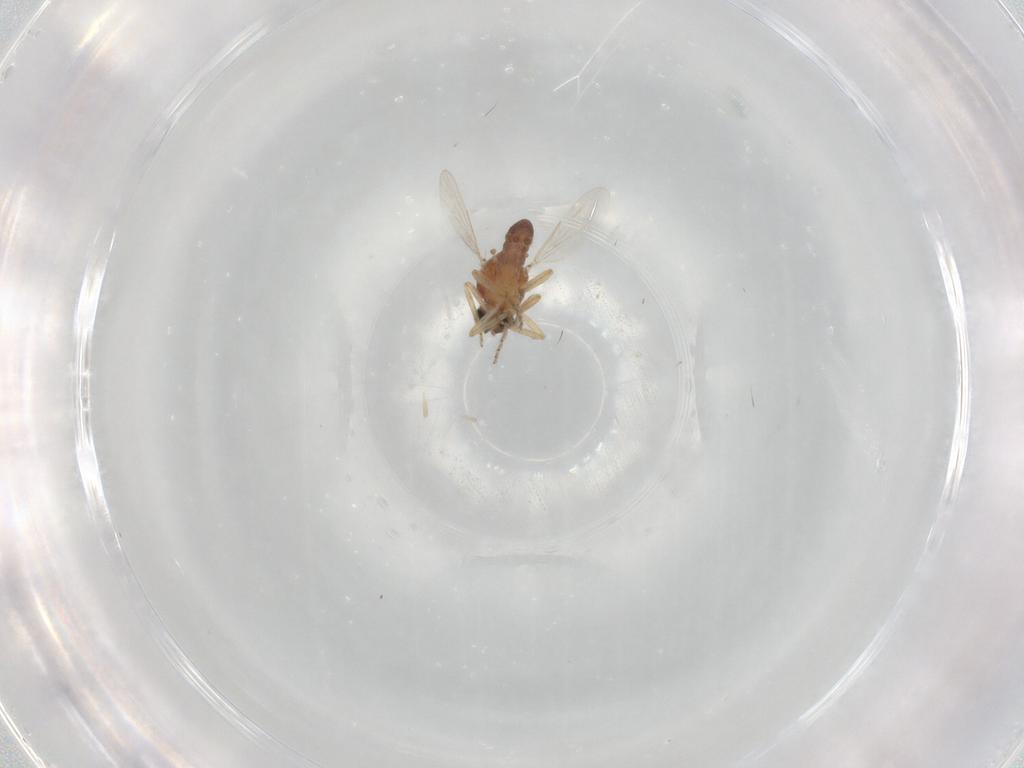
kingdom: Animalia
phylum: Arthropoda
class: Insecta
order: Diptera
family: Ceratopogonidae
